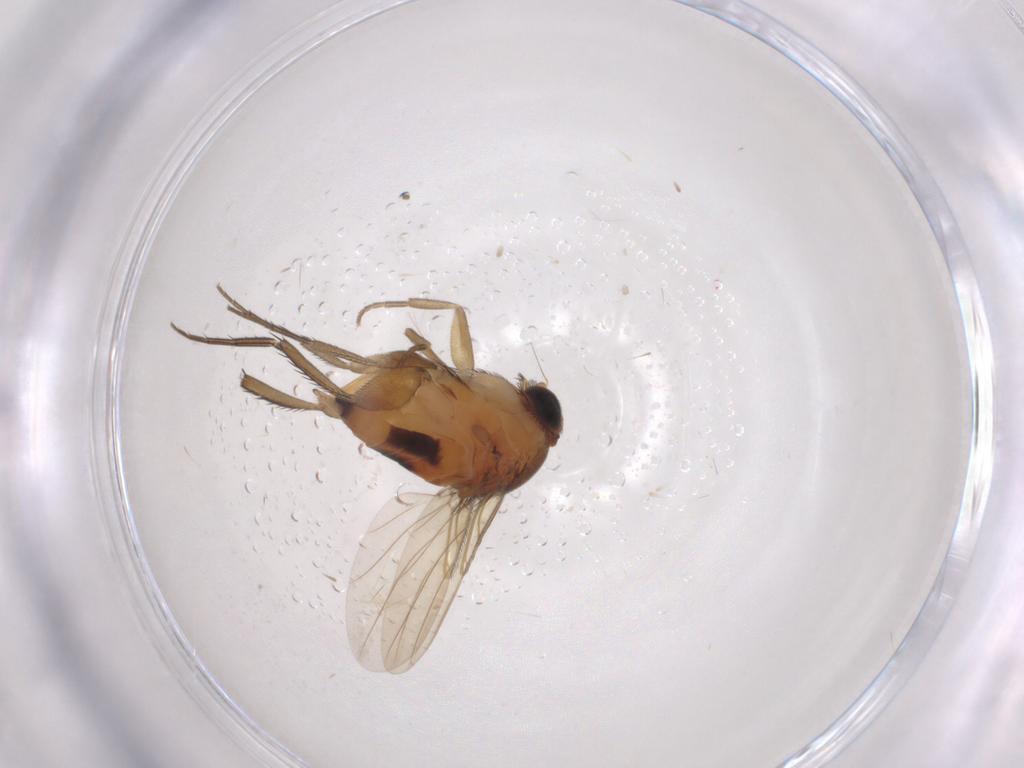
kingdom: Animalia
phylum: Arthropoda
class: Insecta
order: Diptera
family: Phoridae
